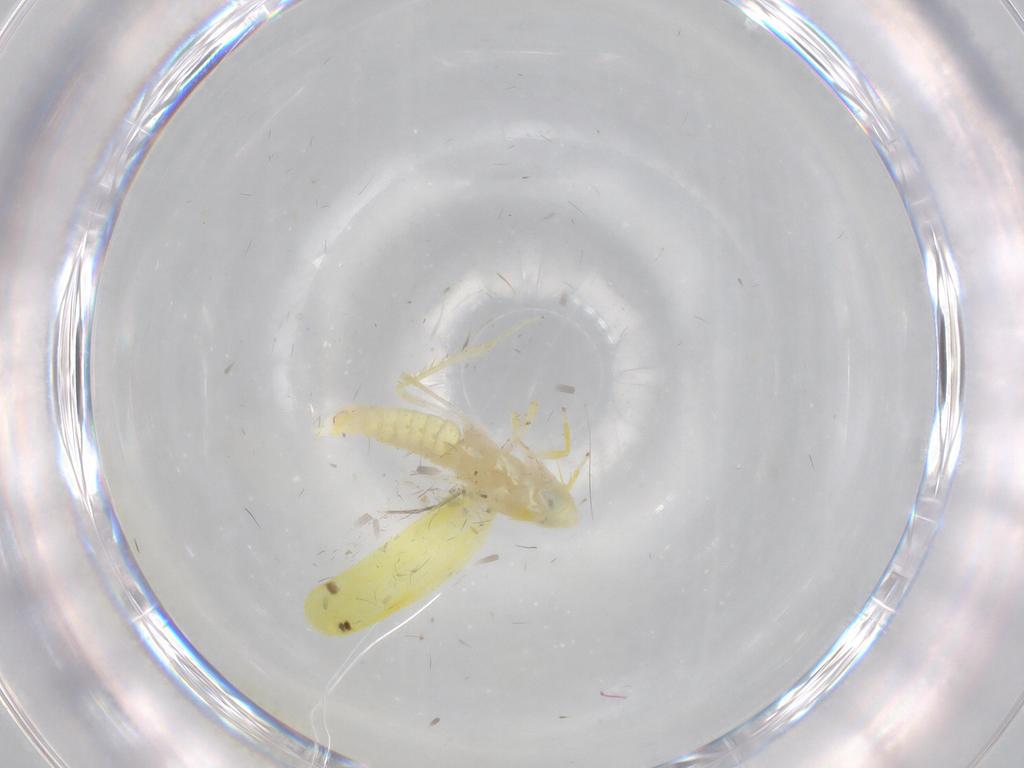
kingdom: Animalia
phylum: Arthropoda
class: Insecta
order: Hemiptera
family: Cicadellidae
